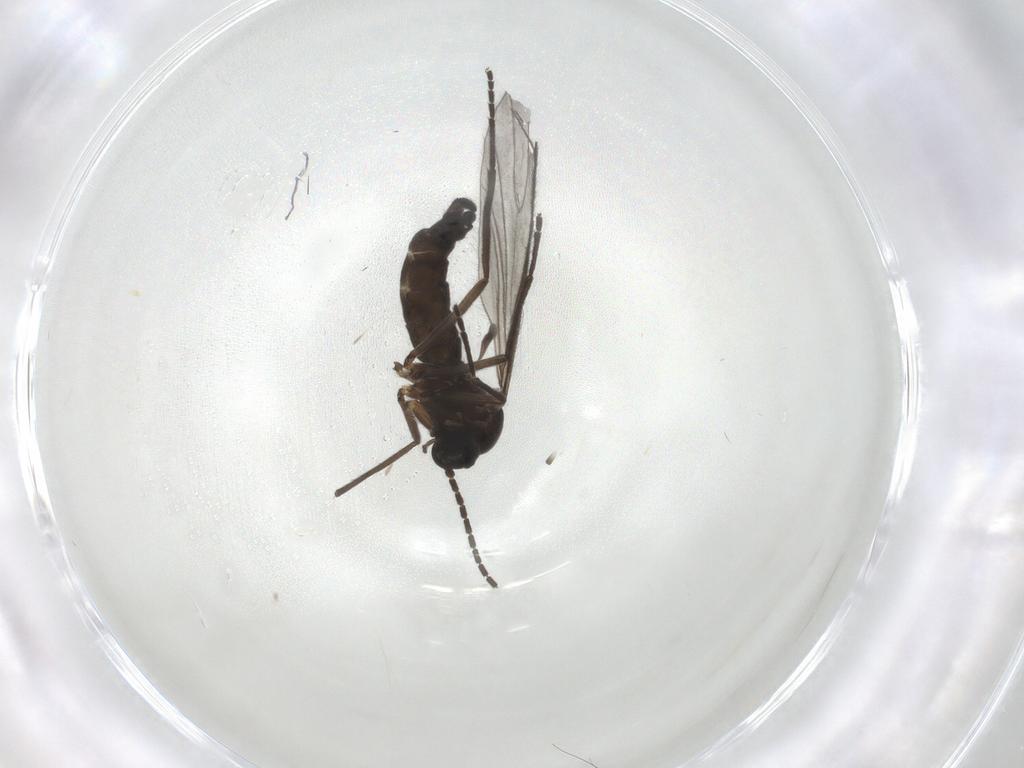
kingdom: Animalia
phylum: Arthropoda
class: Insecta
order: Diptera
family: Sciaridae
